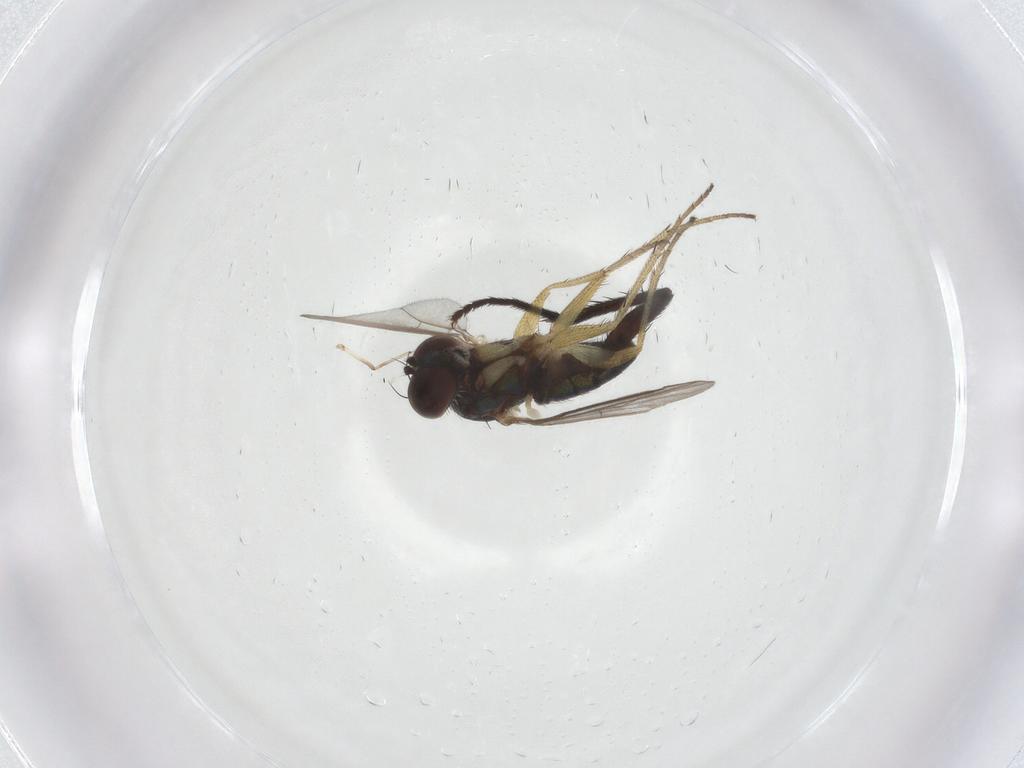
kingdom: Animalia
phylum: Arthropoda
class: Insecta
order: Diptera
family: Sarcophagidae
